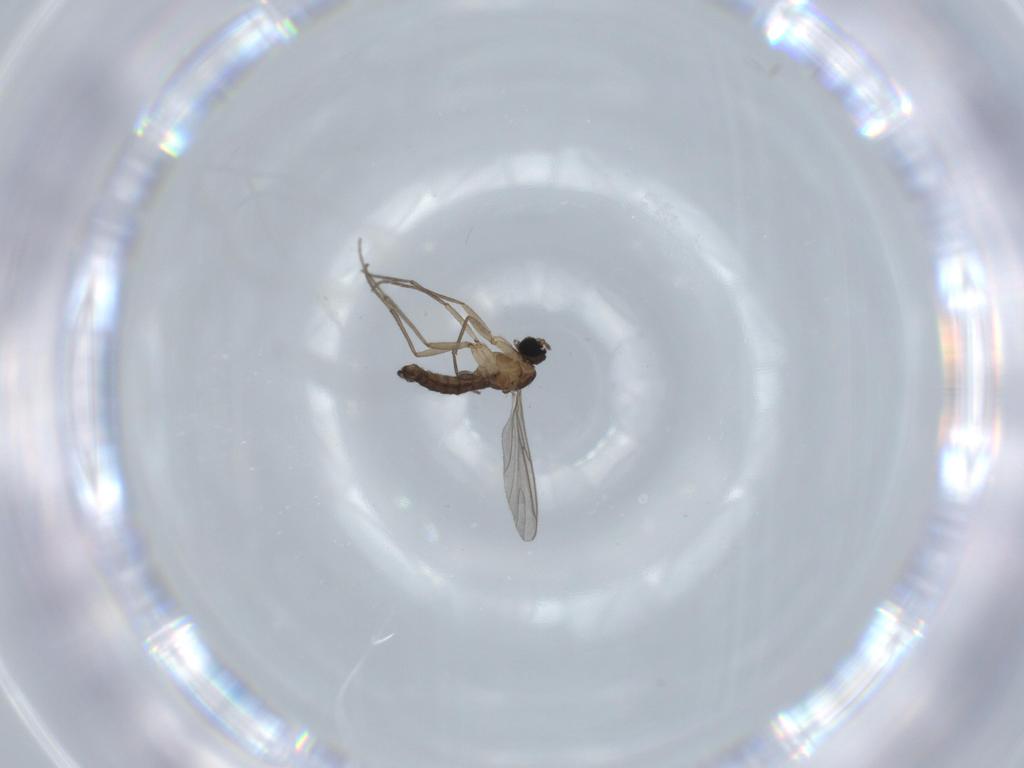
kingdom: Animalia
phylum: Arthropoda
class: Insecta
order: Diptera
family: Sciaridae
